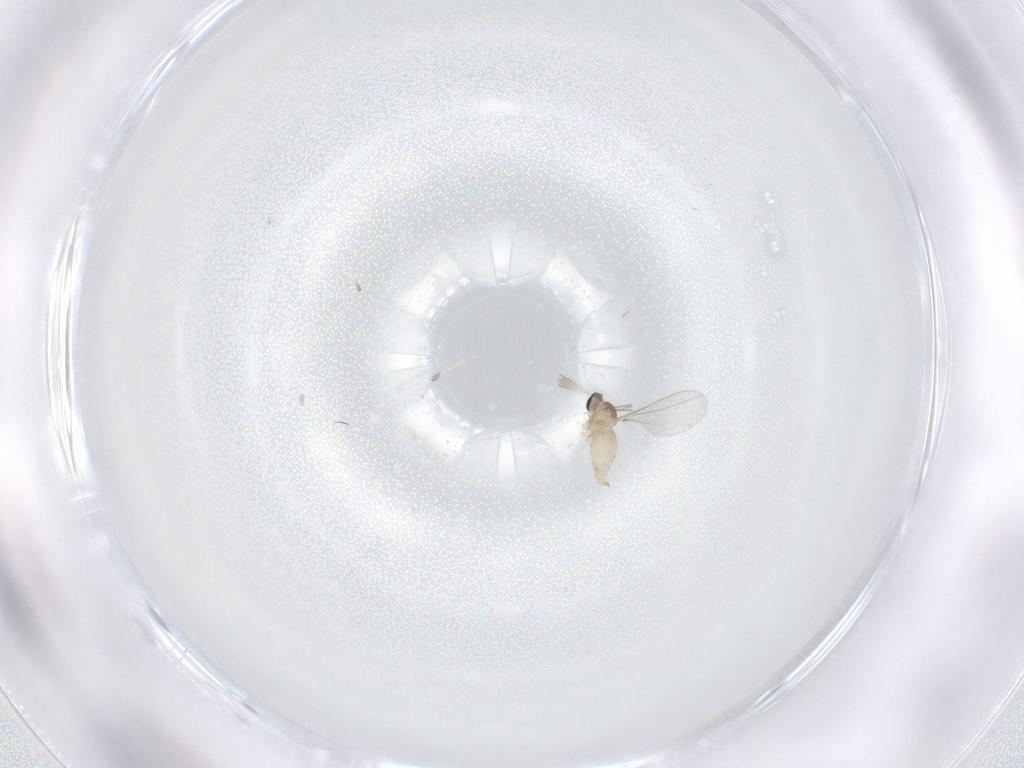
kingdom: Animalia
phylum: Arthropoda
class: Insecta
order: Diptera
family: Cecidomyiidae
